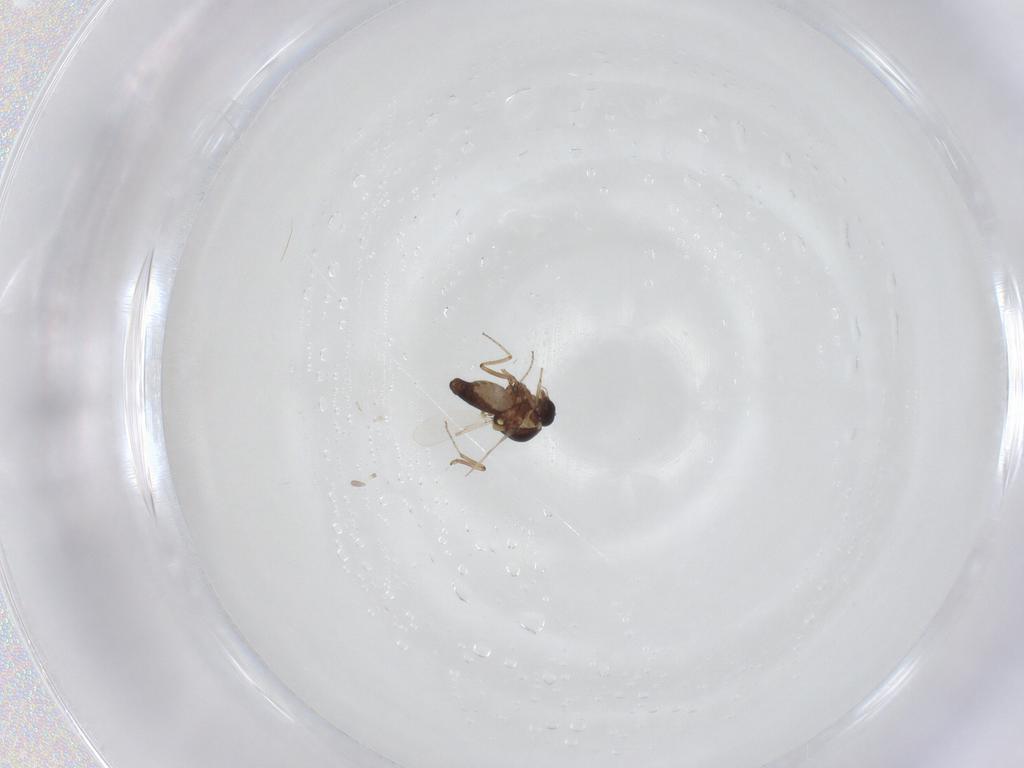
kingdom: Animalia
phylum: Arthropoda
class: Insecta
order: Diptera
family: Ceratopogonidae
